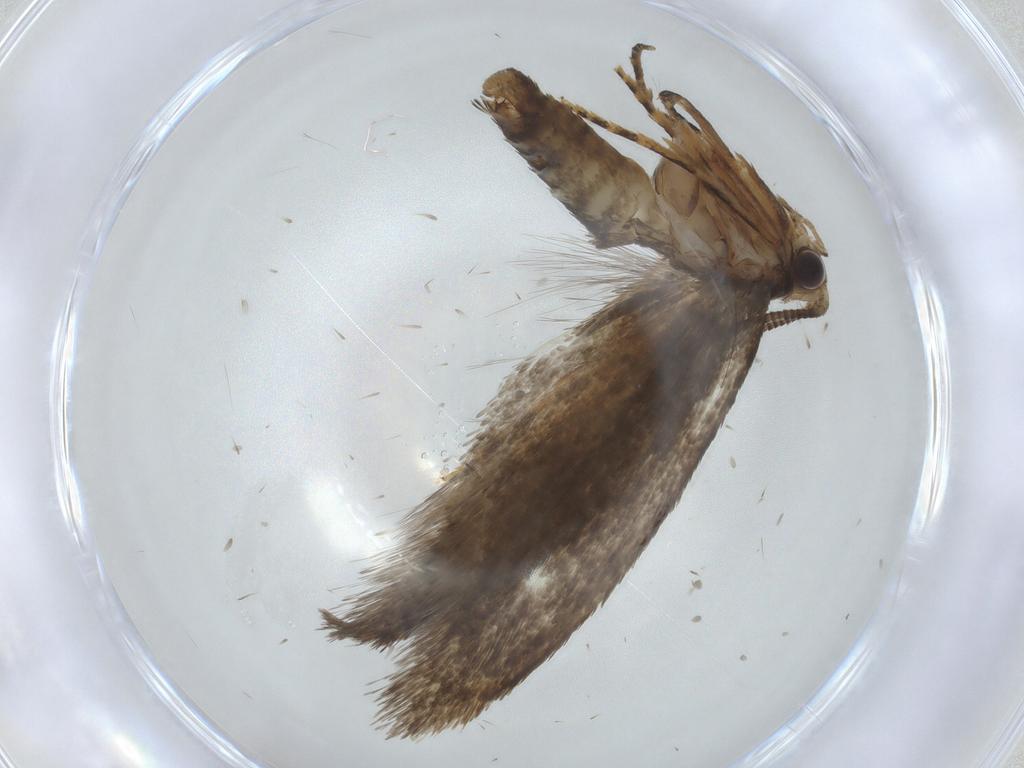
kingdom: Animalia
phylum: Arthropoda
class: Insecta
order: Lepidoptera
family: Crambidae
